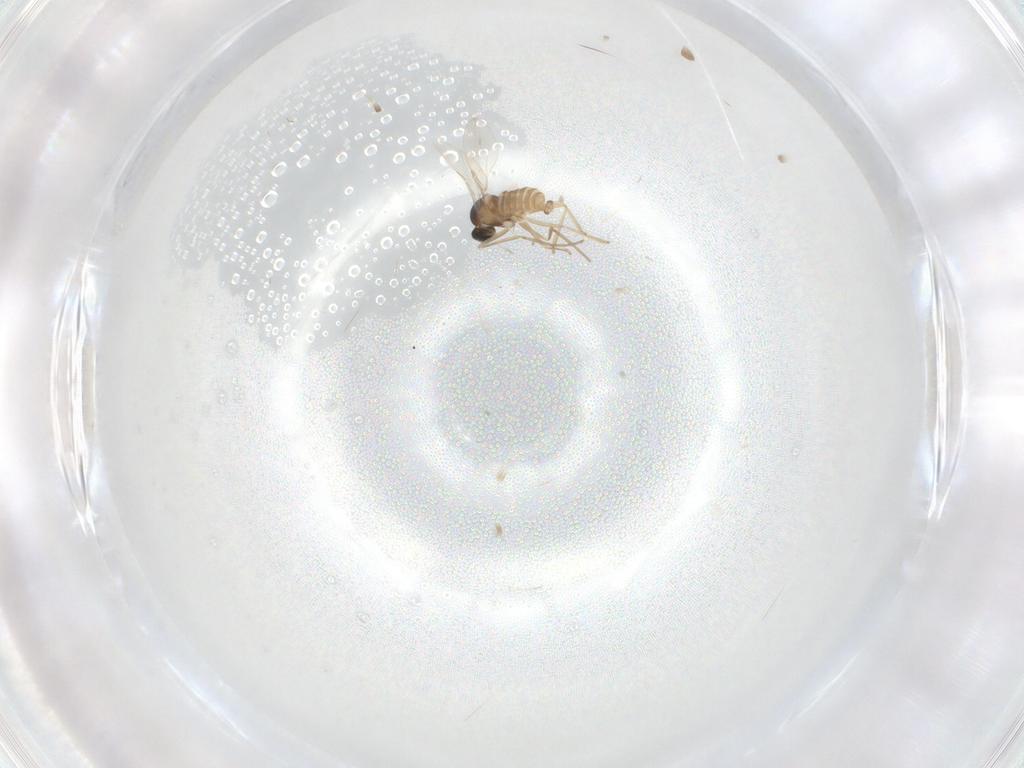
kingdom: Animalia
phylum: Arthropoda
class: Insecta
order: Diptera
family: Cecidomyiidae
